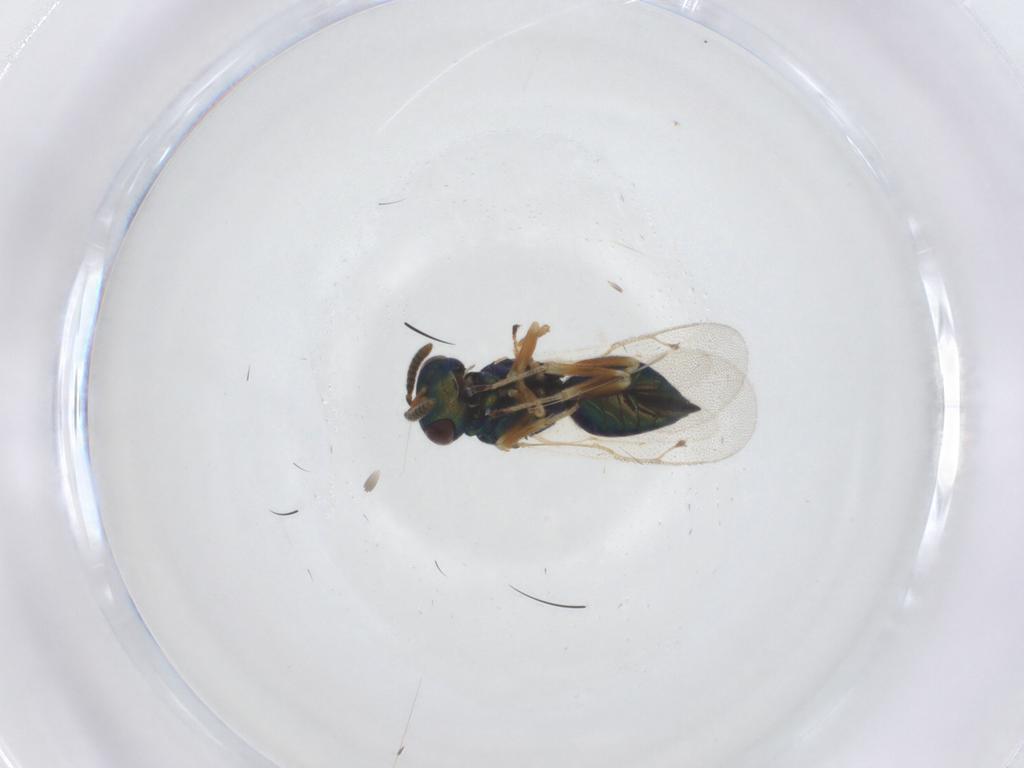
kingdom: Animalia
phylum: Arthropoda
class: Insecta
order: Hymenoptera
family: Pteromalidae
